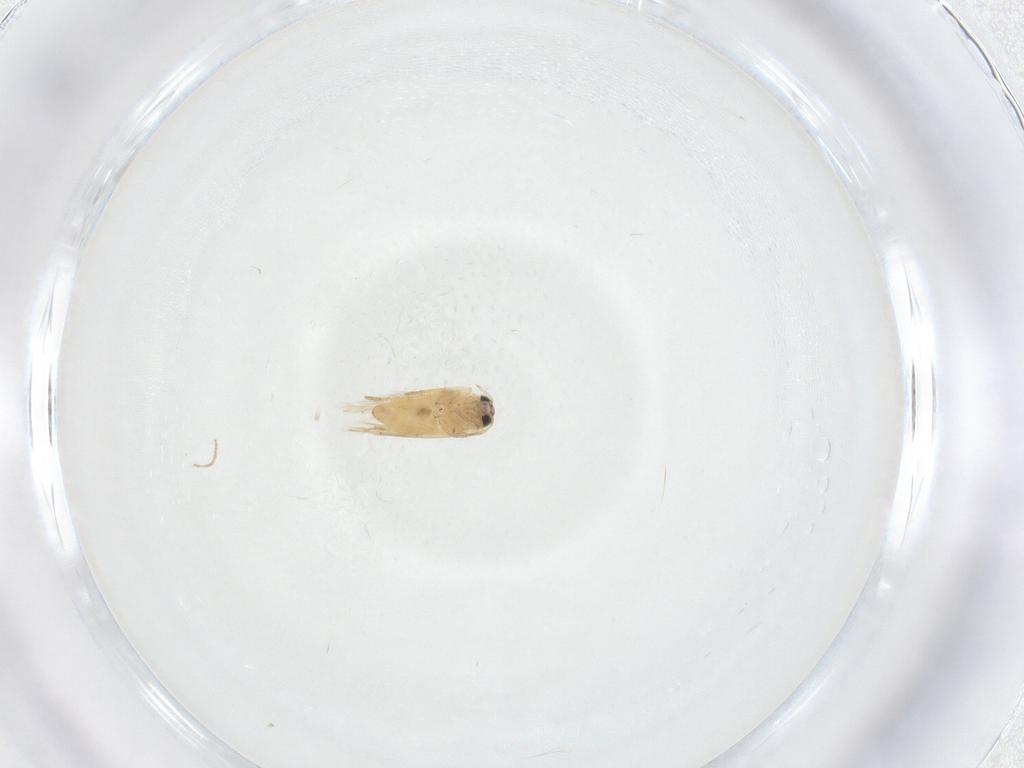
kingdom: Animalia
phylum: Arthropoda
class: Insecta
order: Lepidoptera
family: Crambidae
